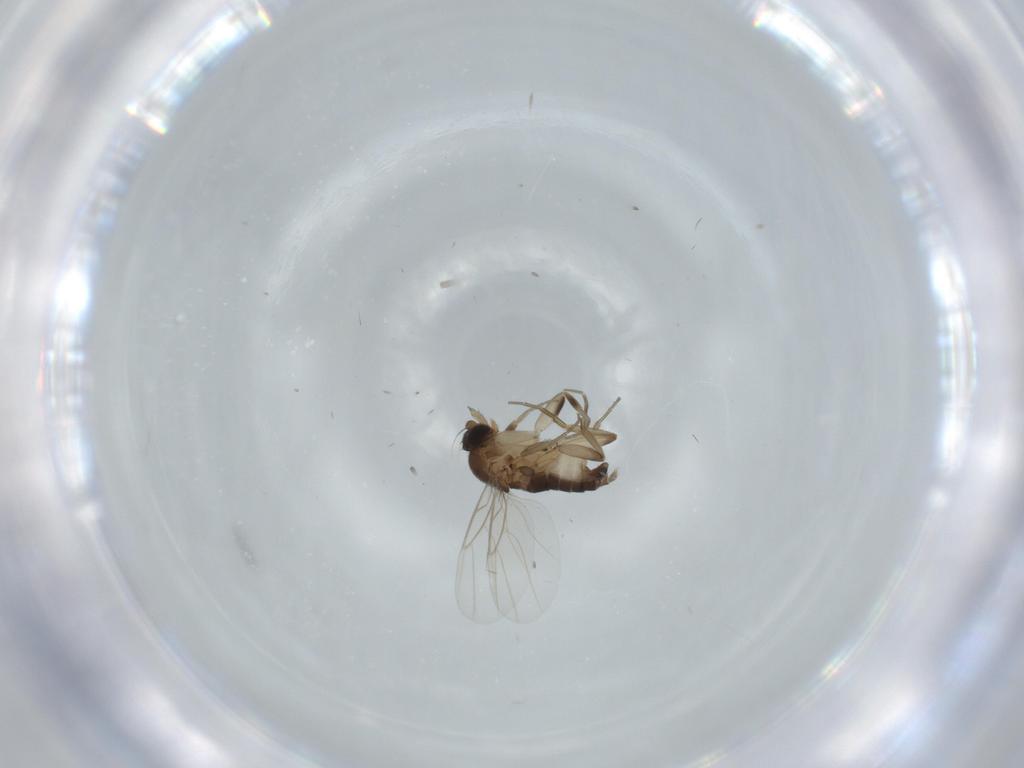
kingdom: Animalia
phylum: Arthropoda
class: Insecta
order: Diptera
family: Phoridae
